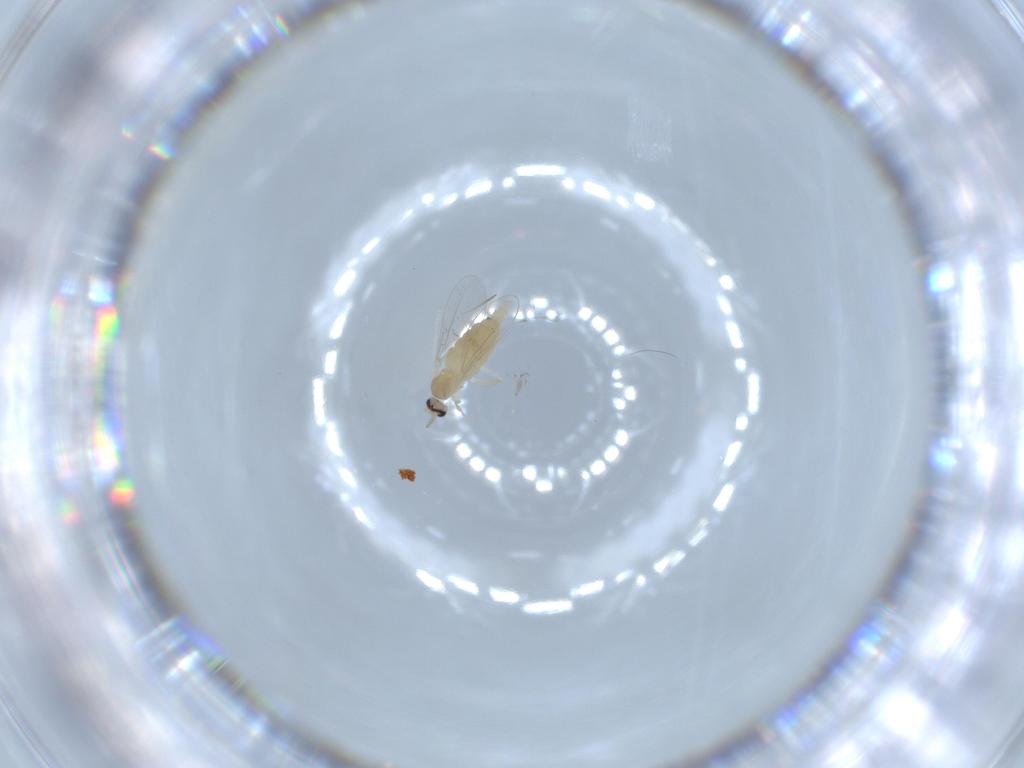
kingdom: Animalia
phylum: Arthropoda
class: Insecta
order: Diptera
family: Cecidomyiidae
